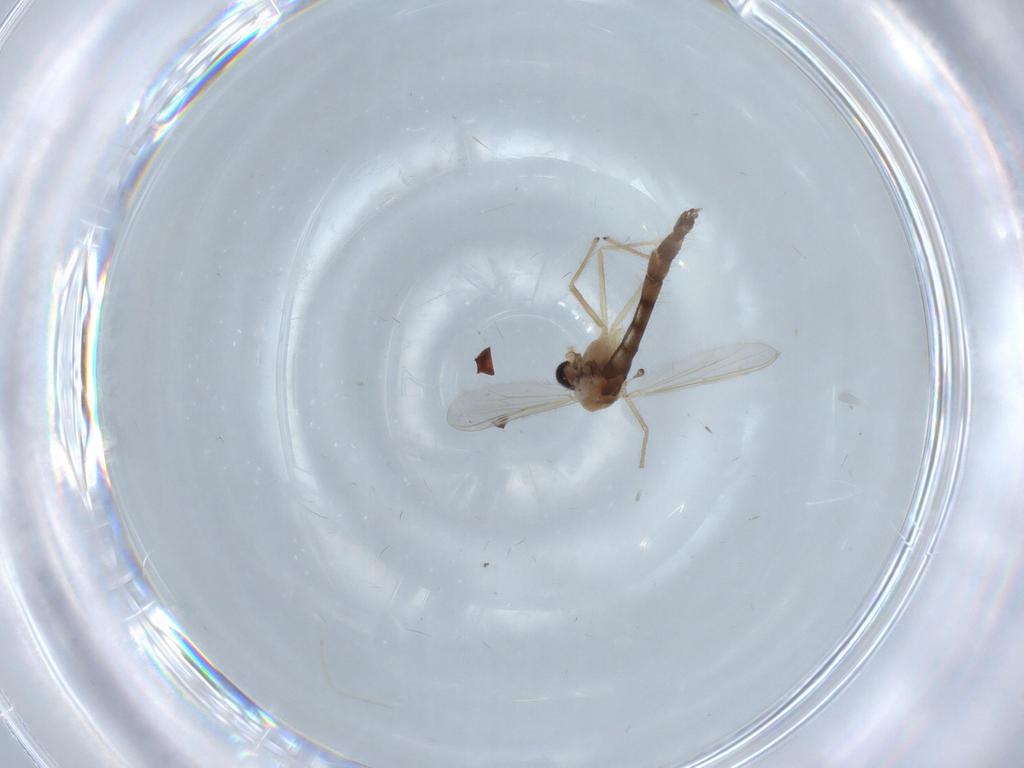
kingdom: Animalia
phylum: Arthropoda
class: Insecta
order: Diptera
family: Chironomidae
